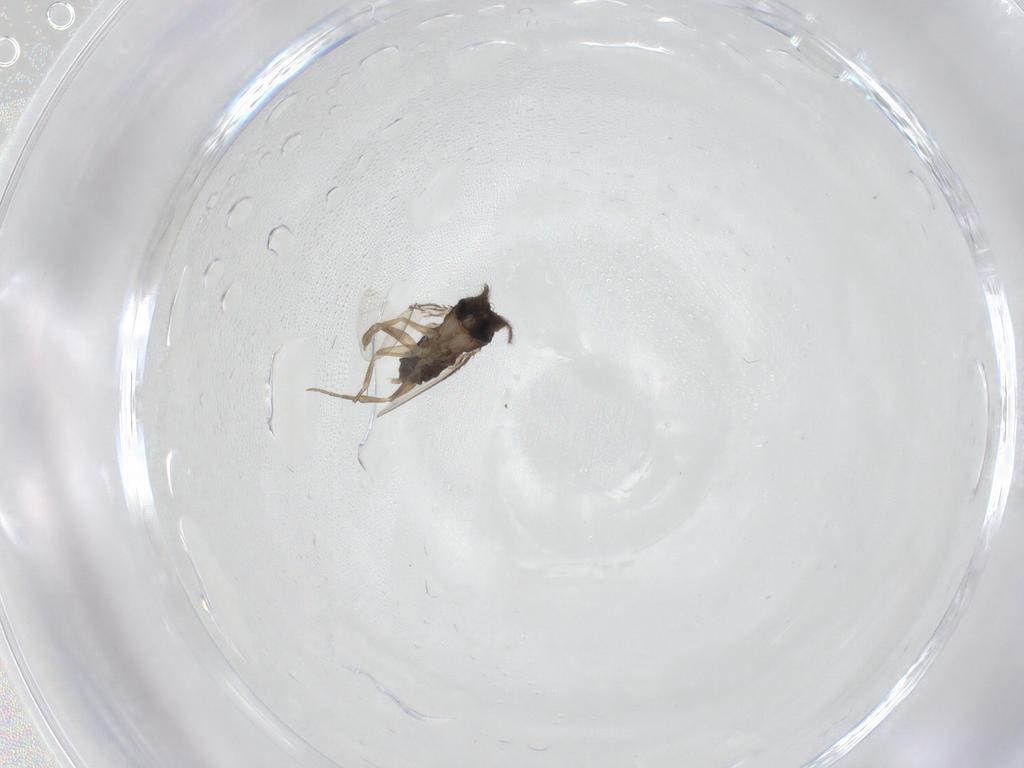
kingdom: Animalia
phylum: Arthropoda
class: Insecta
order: Diptera
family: Phoridae
